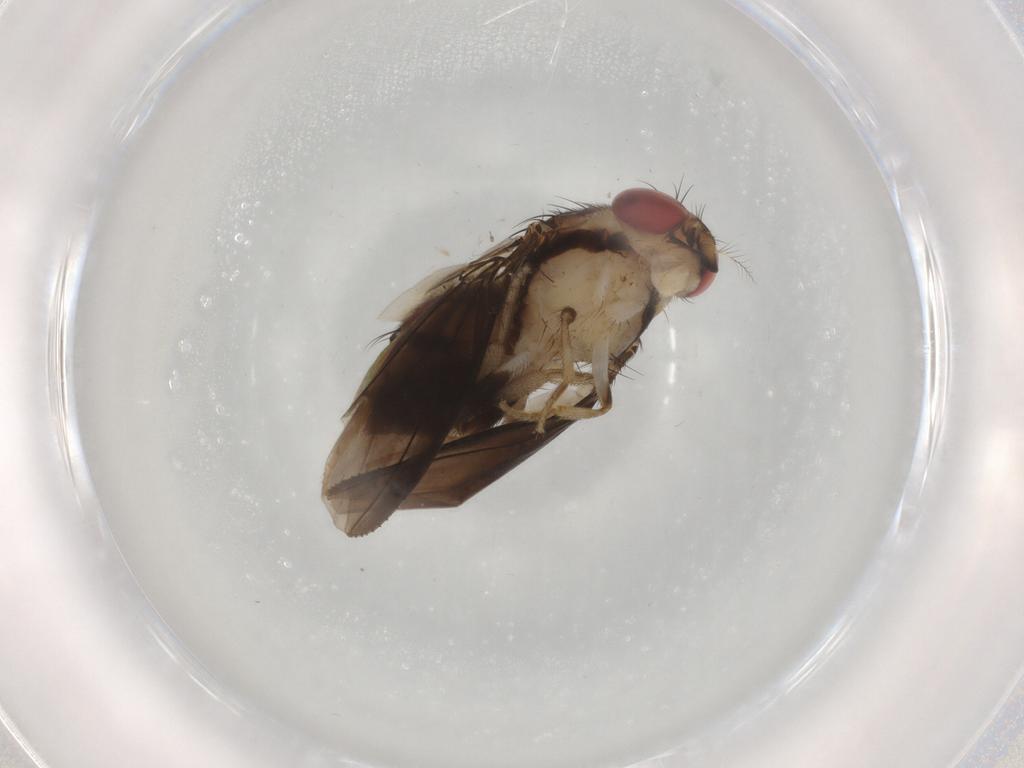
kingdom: Animalia
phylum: Arthropoda
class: Insecta
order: Diptera
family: Drosophilidae
